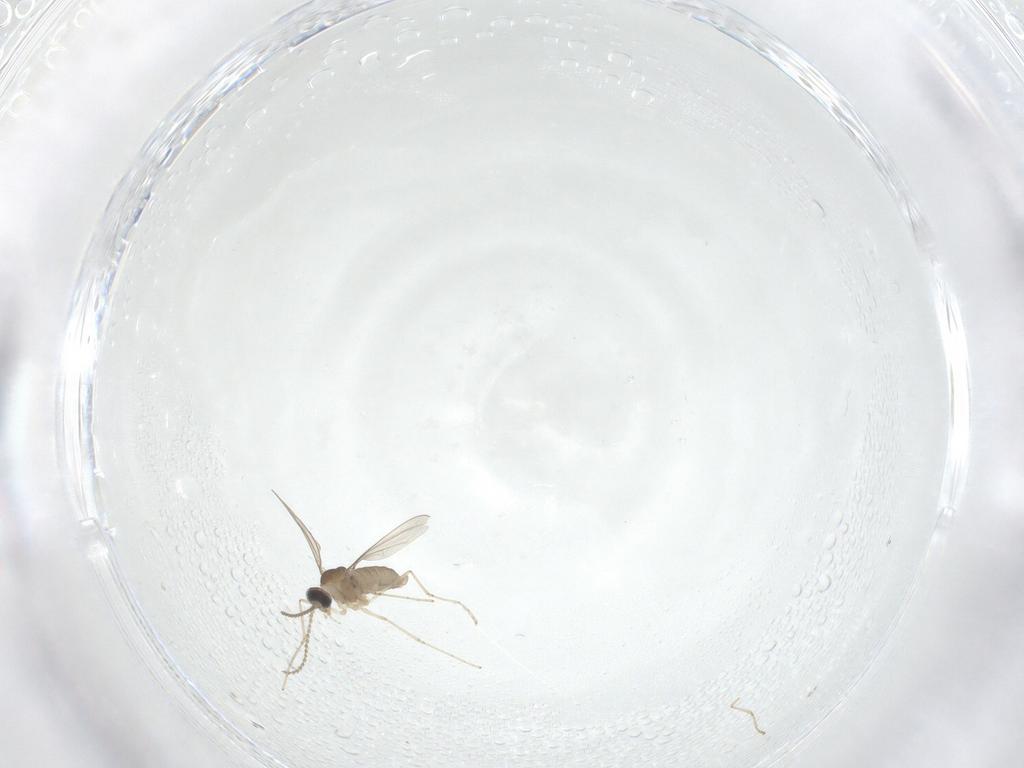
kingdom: Animalia
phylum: Arthropoda
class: Insecta
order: Diptera
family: Cecidomyiidae
